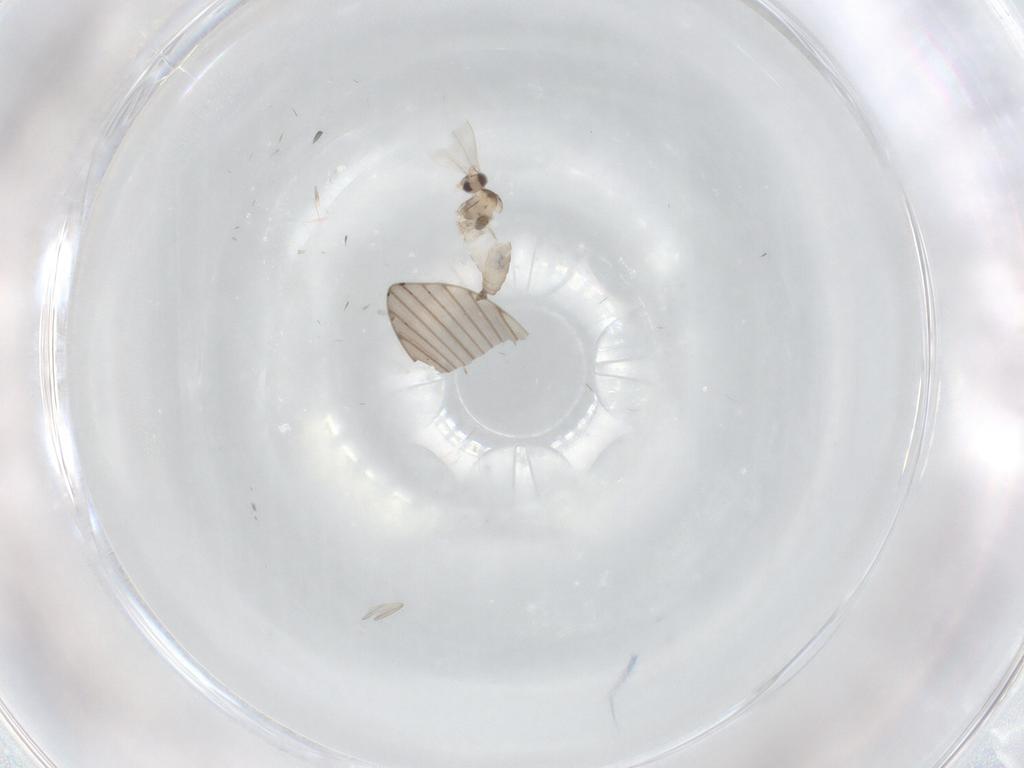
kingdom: Animalia
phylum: Arthropoda
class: Insecta
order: Diptera
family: Cecidomyiidae
